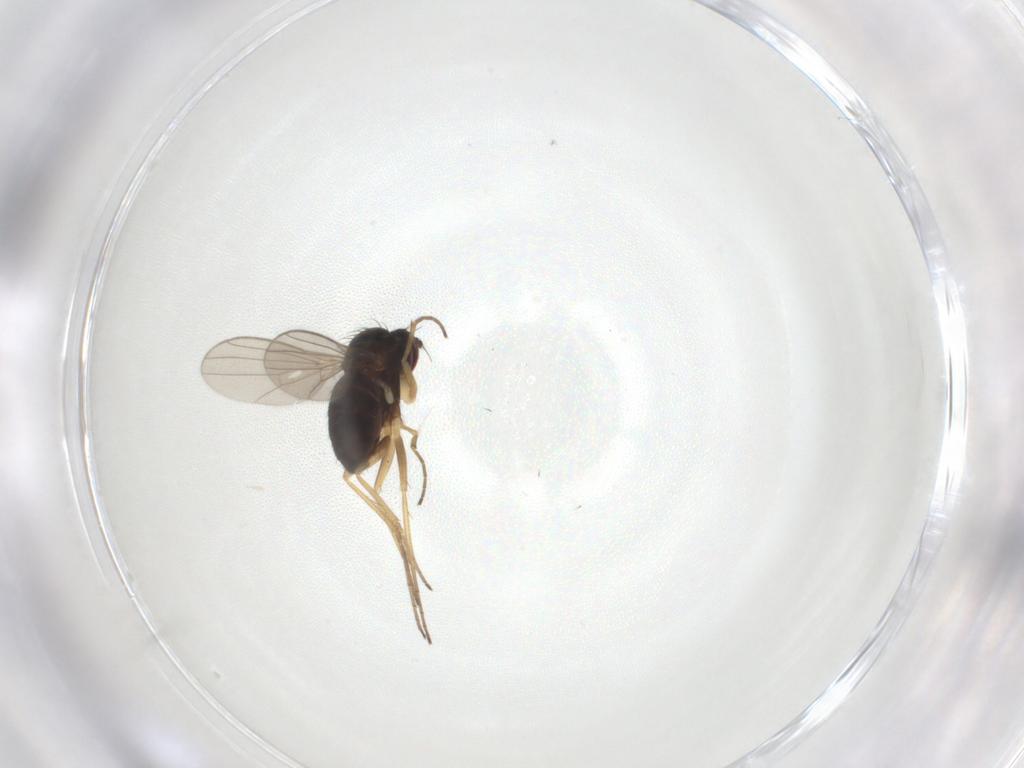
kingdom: Animalia
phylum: Arthropoda
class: Insecta
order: Diptera
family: Dolichopodidae
